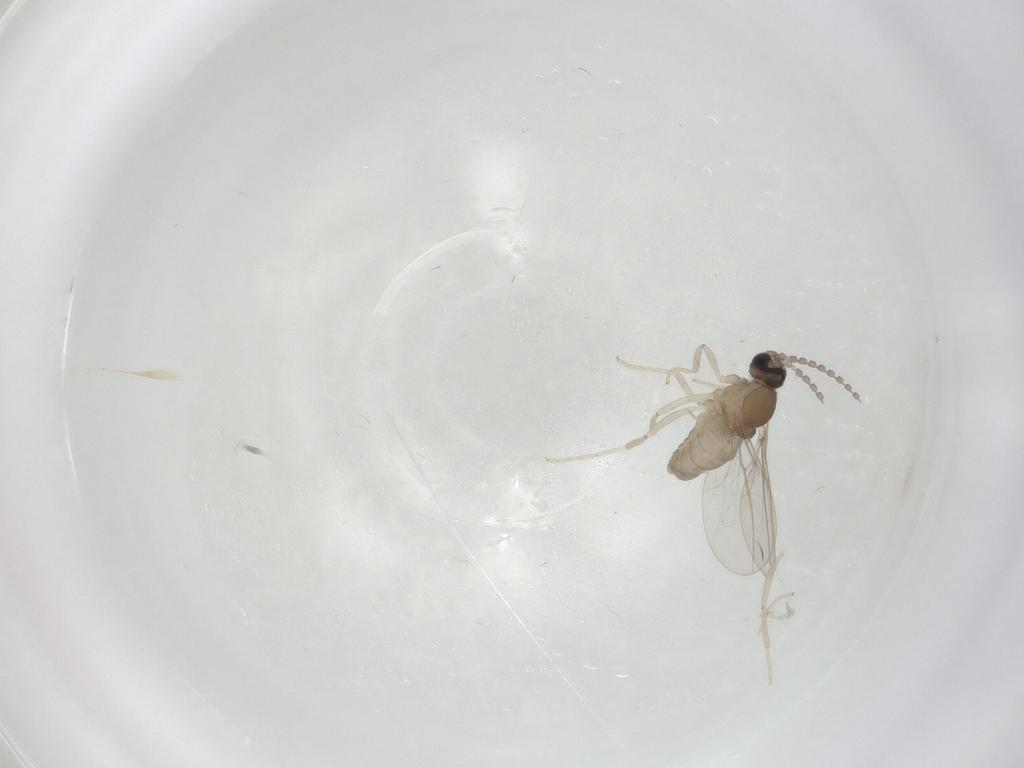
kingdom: Animalia
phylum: Arthropoda
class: Insecta
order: Diptera
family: Cecidomyiidae
